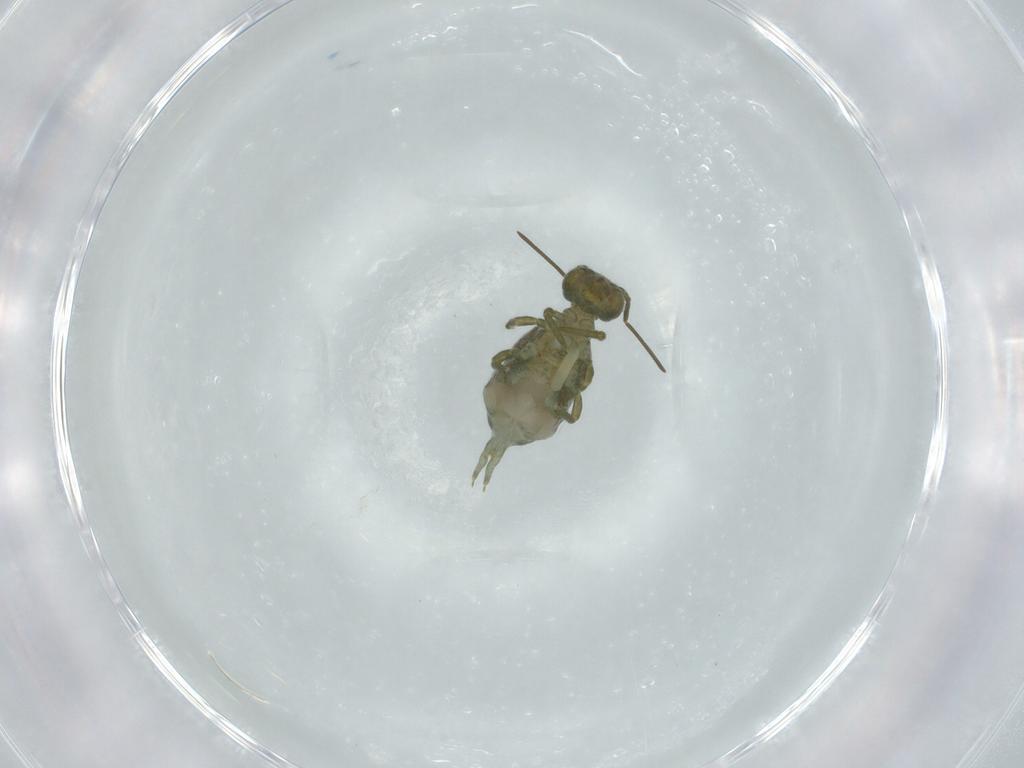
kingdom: Animalia
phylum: Arthropoda
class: Collembola
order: Symphypleona
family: Sminthuridae
